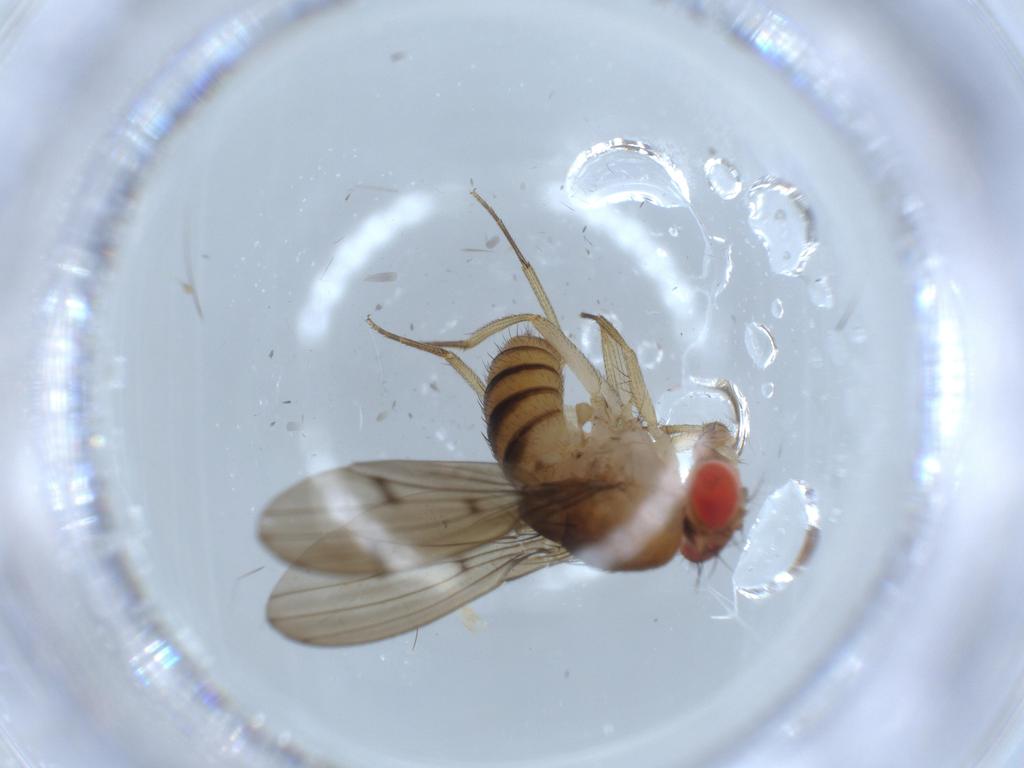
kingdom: Animalia
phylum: Arthropoda
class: Insecta
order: Diptera
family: Drosophilidae
